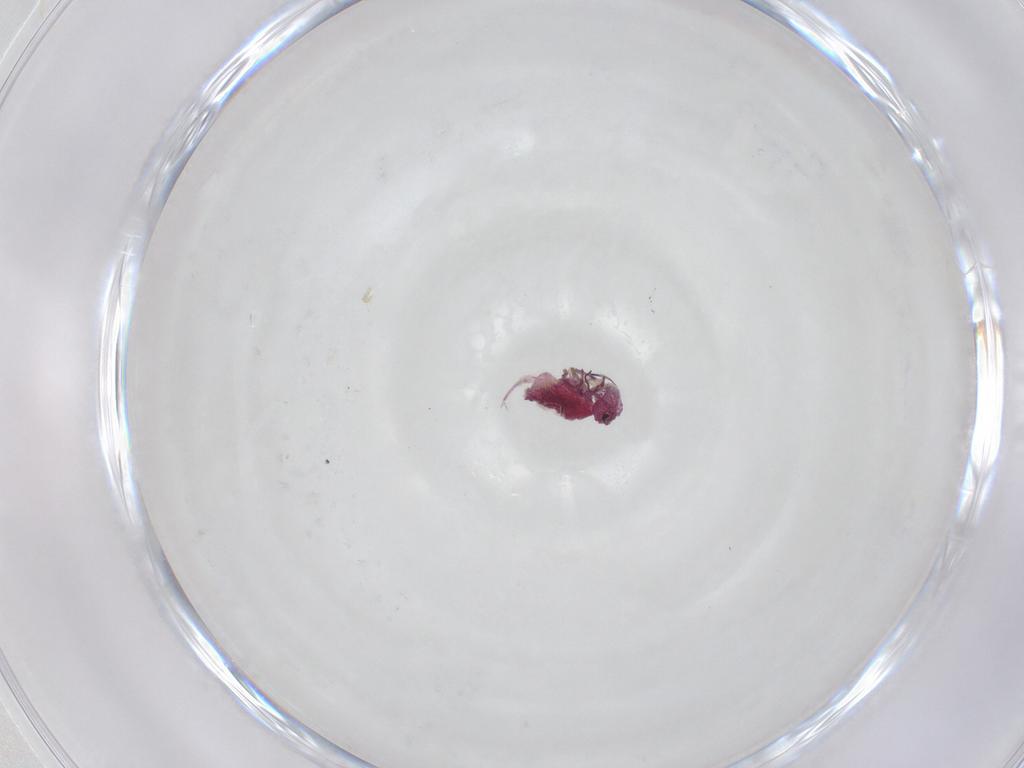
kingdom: Animalia
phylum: Arthropoda
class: Collembola
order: Symphypleona
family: Sminthuridae
